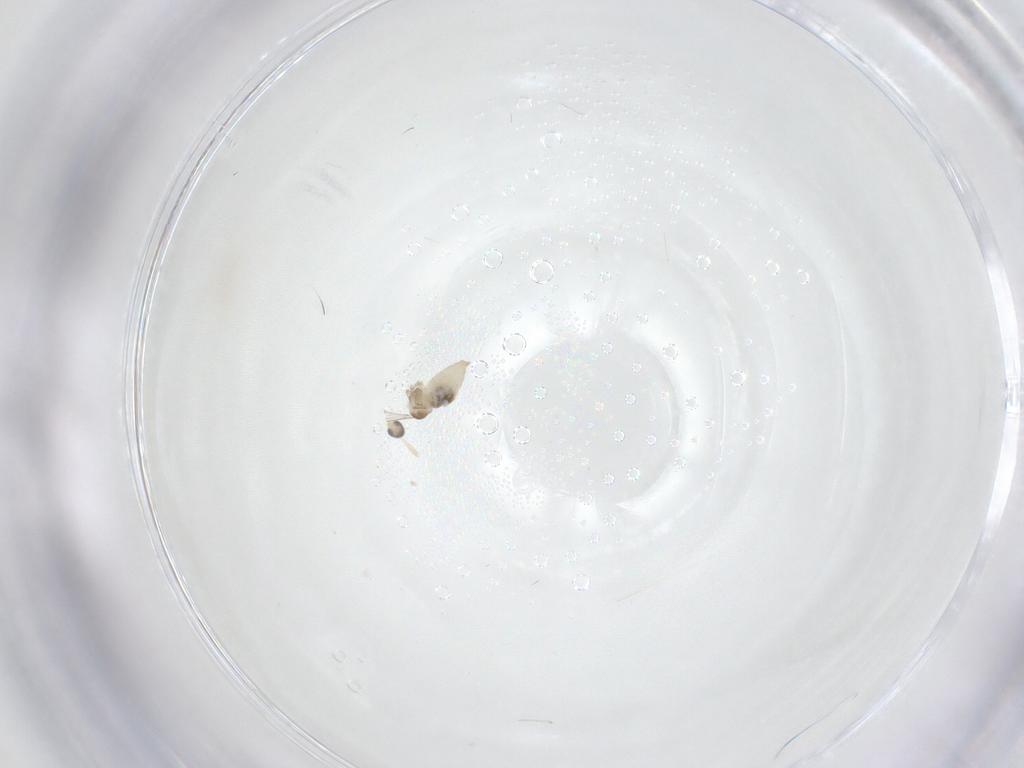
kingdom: Animalia
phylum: Arthropoda
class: Insecta
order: Diptera
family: Cecidomyiidae
